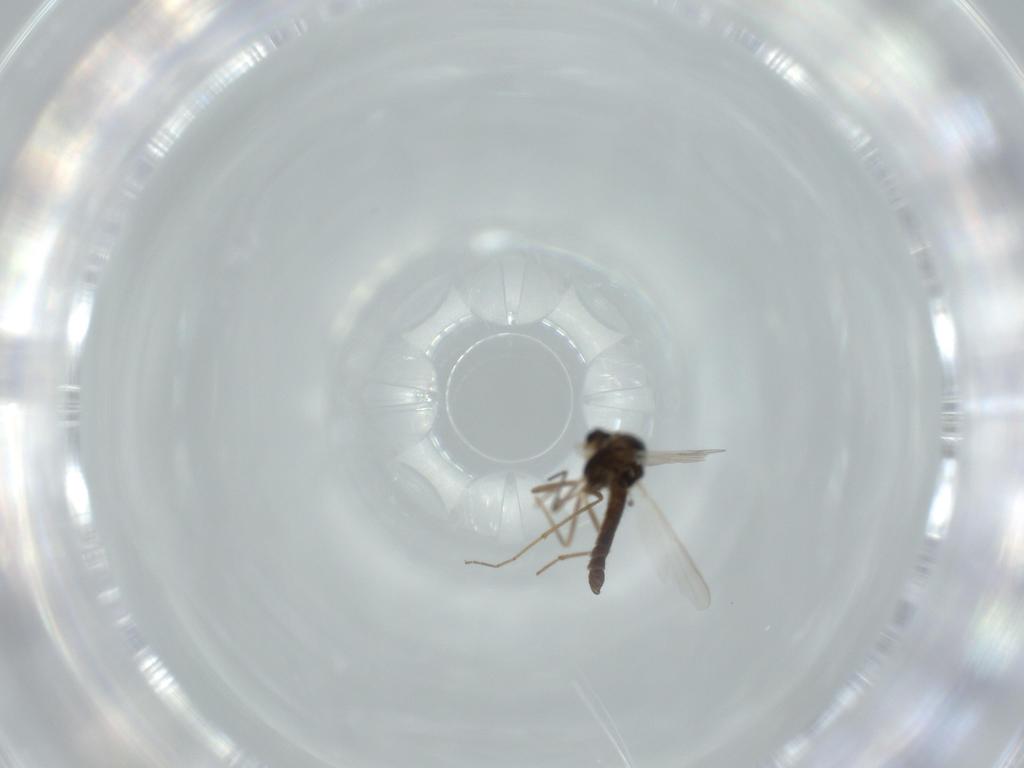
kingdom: Animalia
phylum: Arthropoda
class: Insecta
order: Diptera
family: Chironomidae
